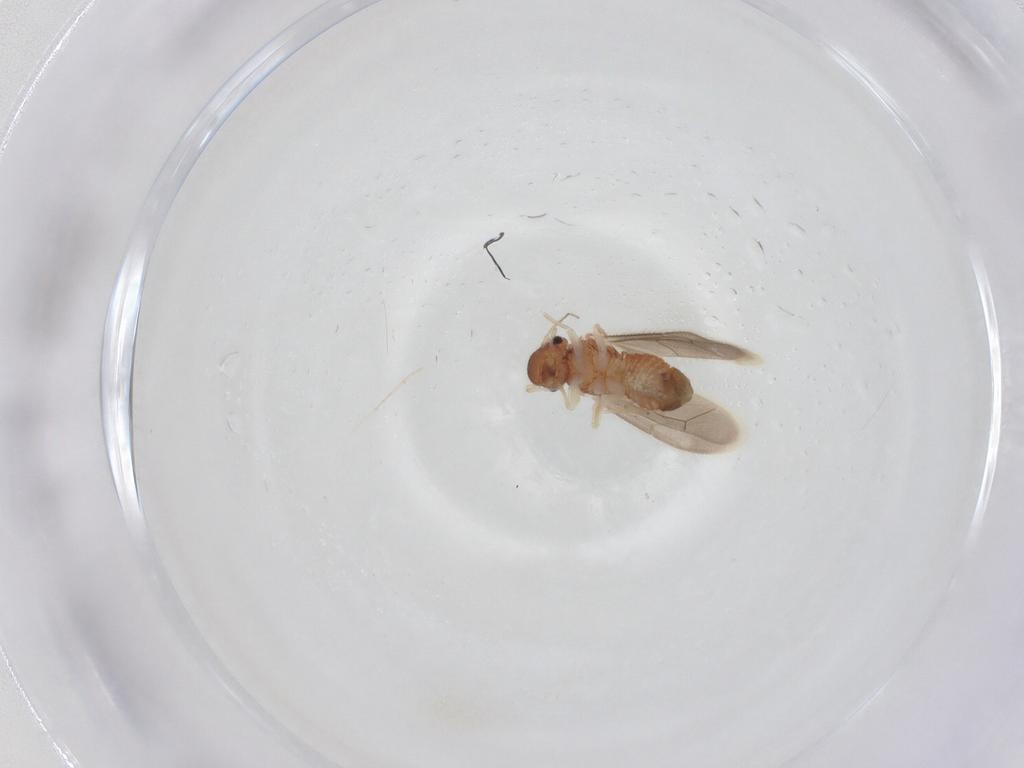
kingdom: Animalia
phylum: Arthropoda
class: Insecta
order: Psocodea
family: Archipsocidae
